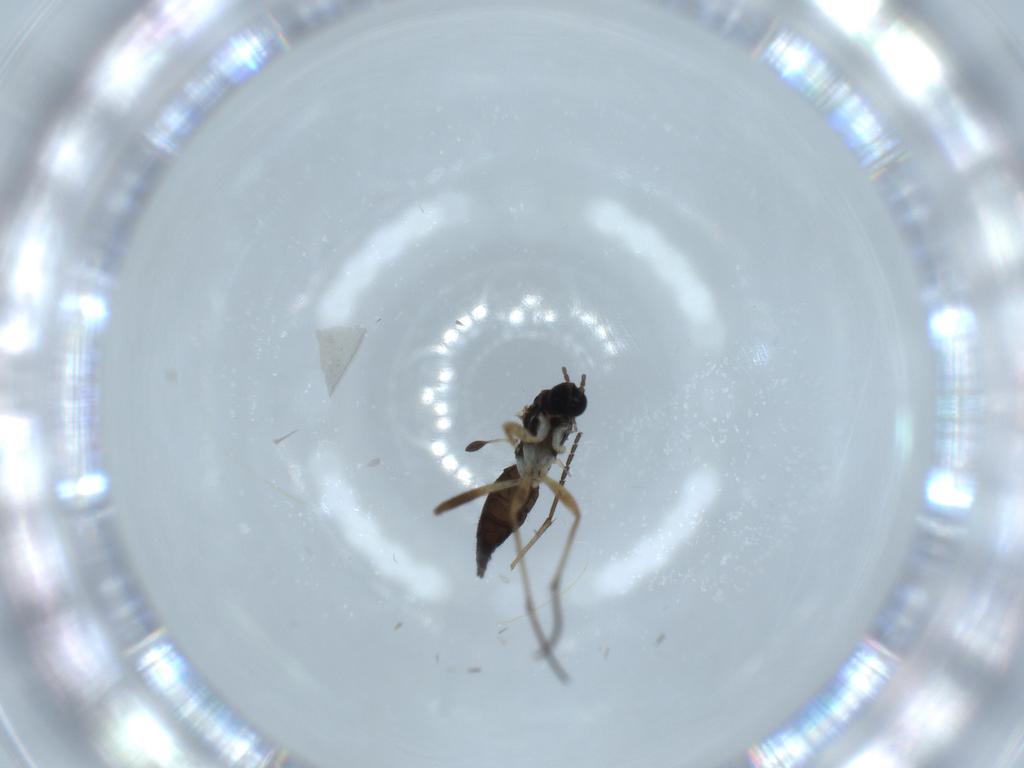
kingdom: Animalia
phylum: Arthropoda
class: Insecta
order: Diptera
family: Sciaridae
